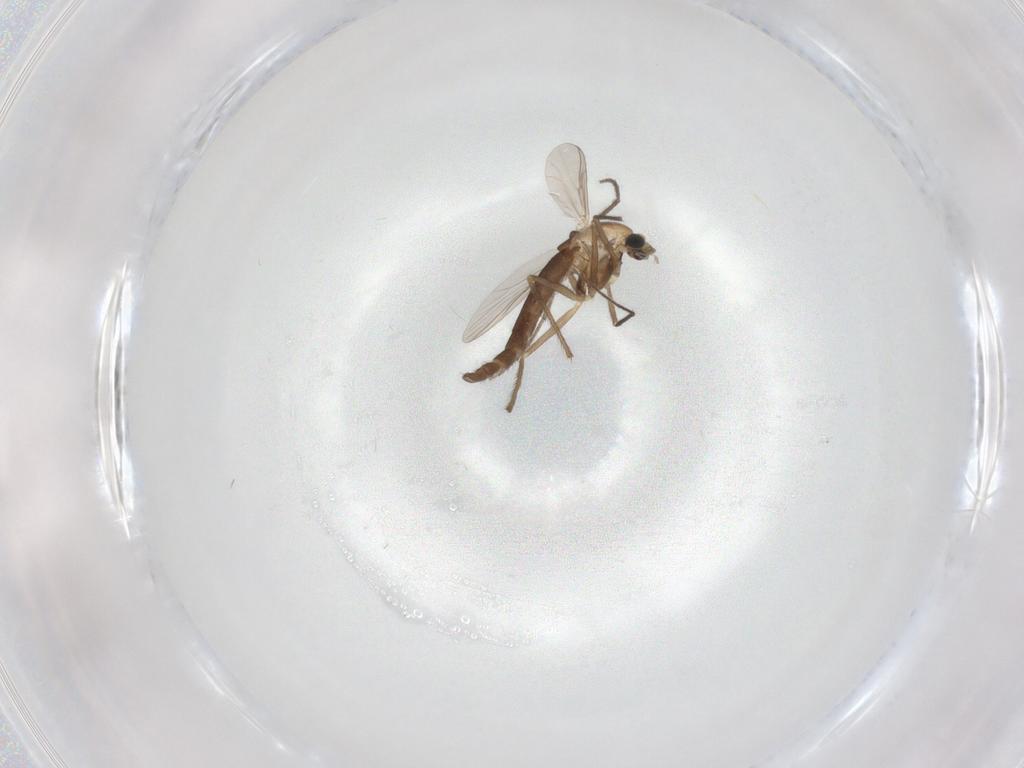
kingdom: Animalia
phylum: Arthropoda
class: Insecta
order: Diptera
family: Chironomidae
